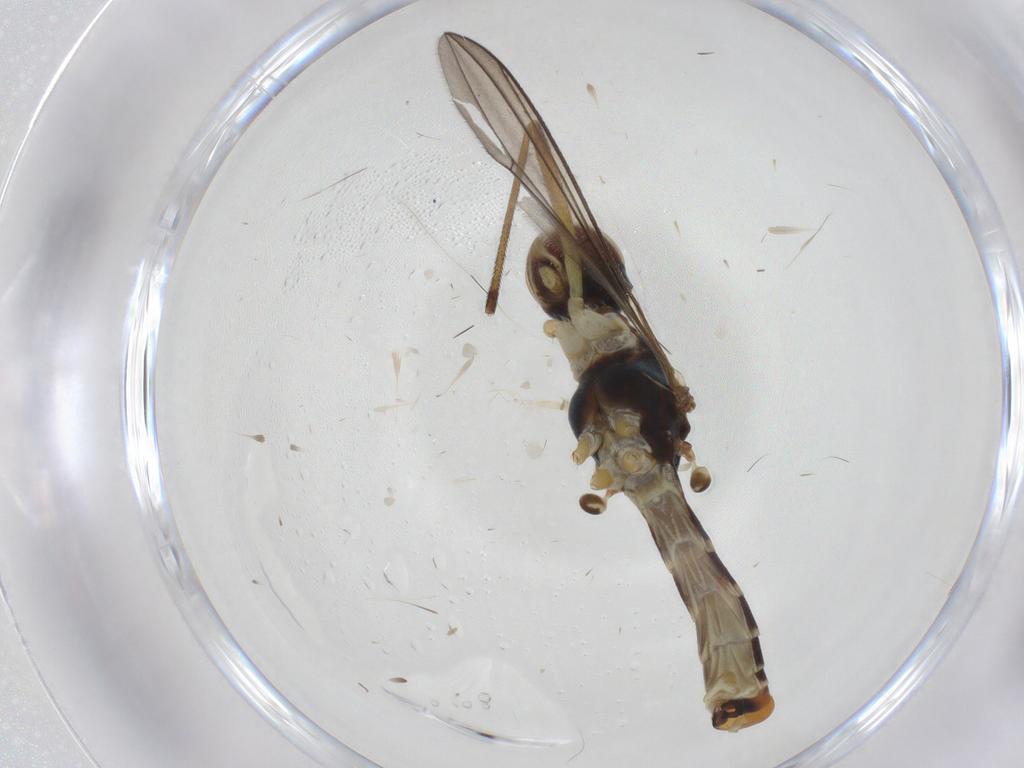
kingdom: Animalia
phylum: Arthropoda
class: Insecta
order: Diptera
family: Micropezidae
